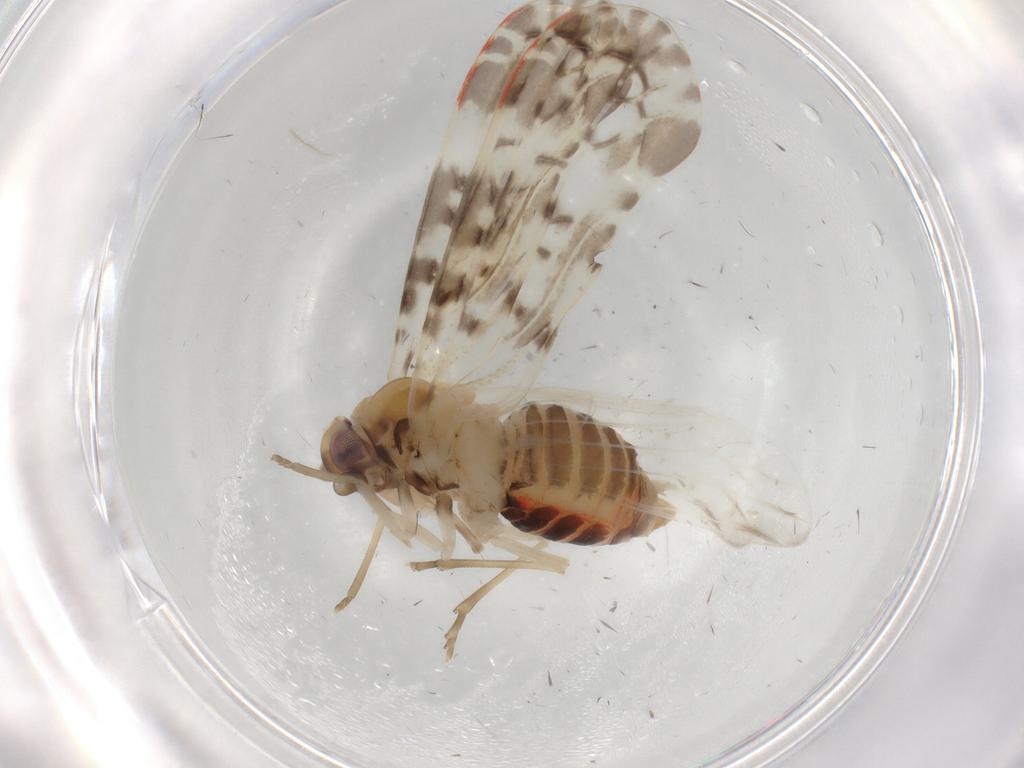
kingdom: Animalia
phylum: Arthropoda
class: Insecta
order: Hemiptera
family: Derbidae
